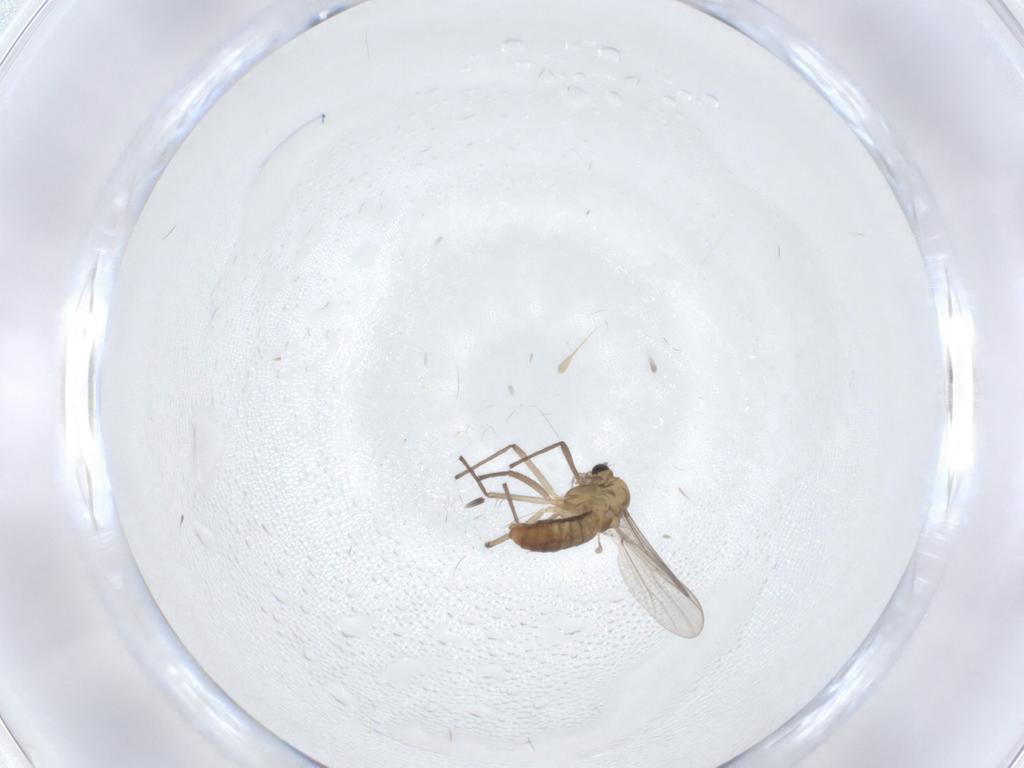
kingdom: Animalia
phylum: Arthropoda
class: Insecta
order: Diptera
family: Chironomidae
